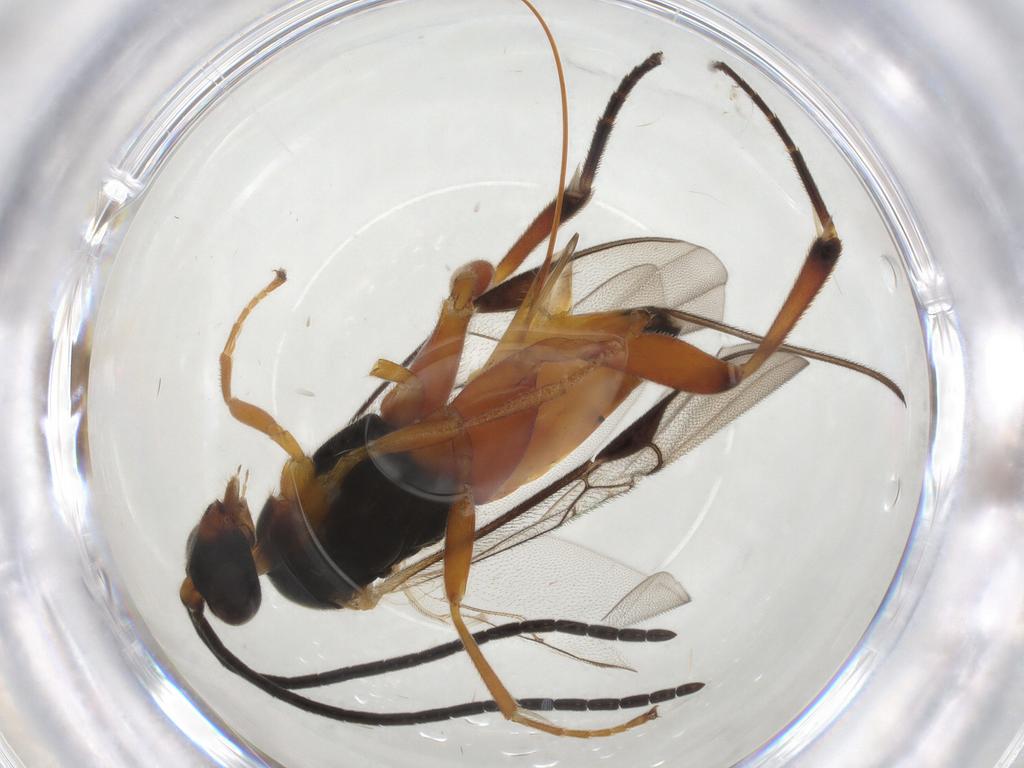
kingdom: Animalia
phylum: Arthropoda
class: Insecta
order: Hymenoptera
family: Braconidae
